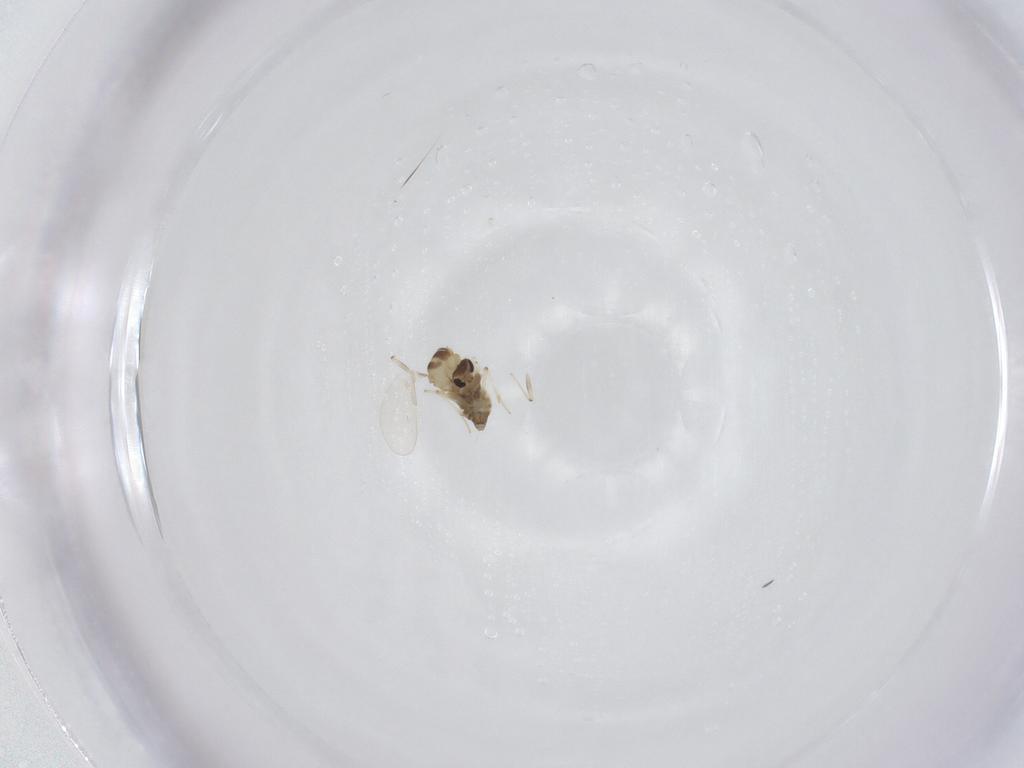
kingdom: Animalia
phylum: Arthropoda
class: Insecta
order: Diptera
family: Chironomidae
